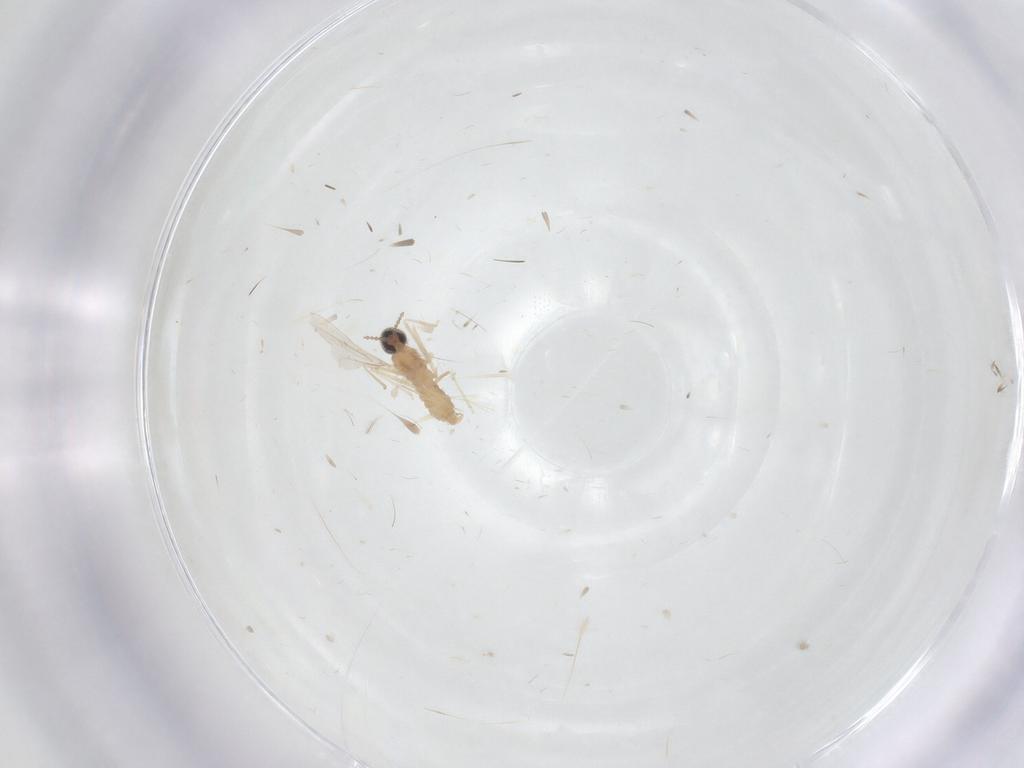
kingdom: Animalia
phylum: Arthropoda
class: Insecta
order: Diptera
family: Cecidomyiidae
